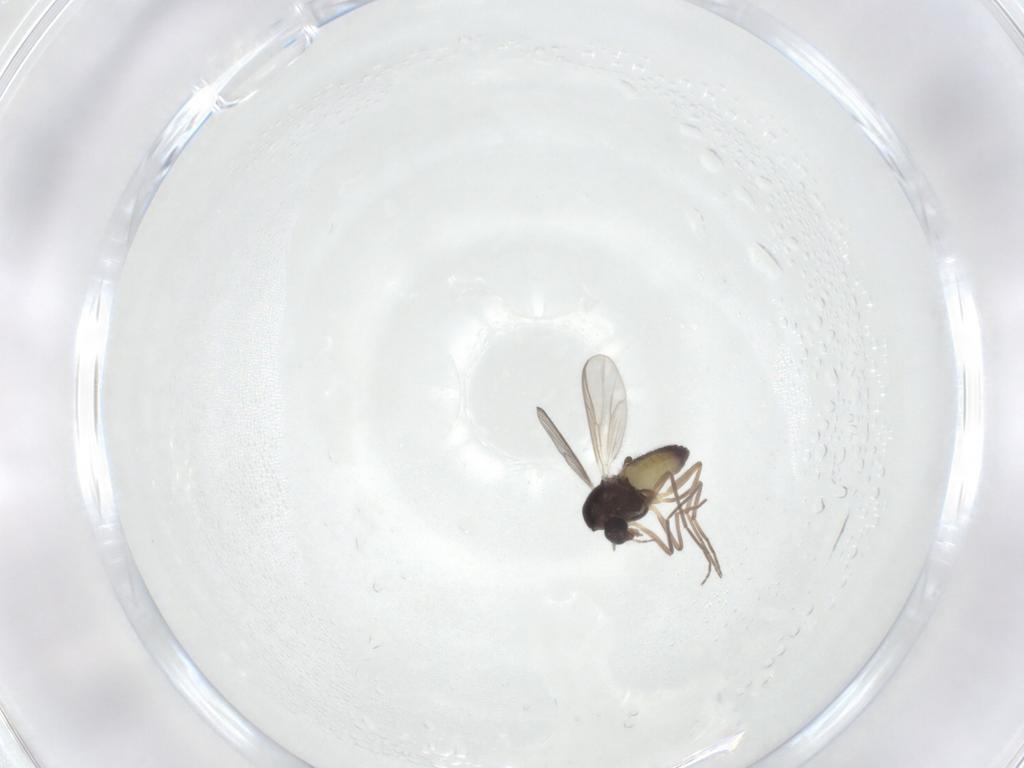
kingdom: Animalia
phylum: Arthropoda
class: Insecta
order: Diptera
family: Chironomidae
